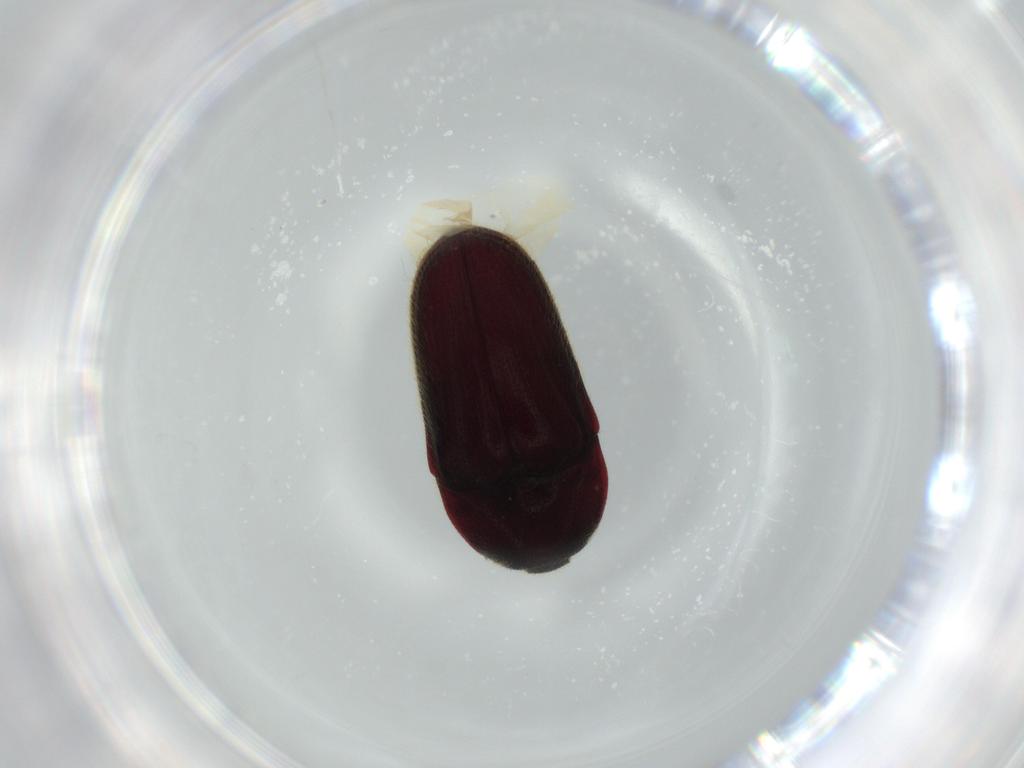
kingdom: Animalia
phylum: Arthropoda
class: Insecta
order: Coleoptera
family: Throscidae
